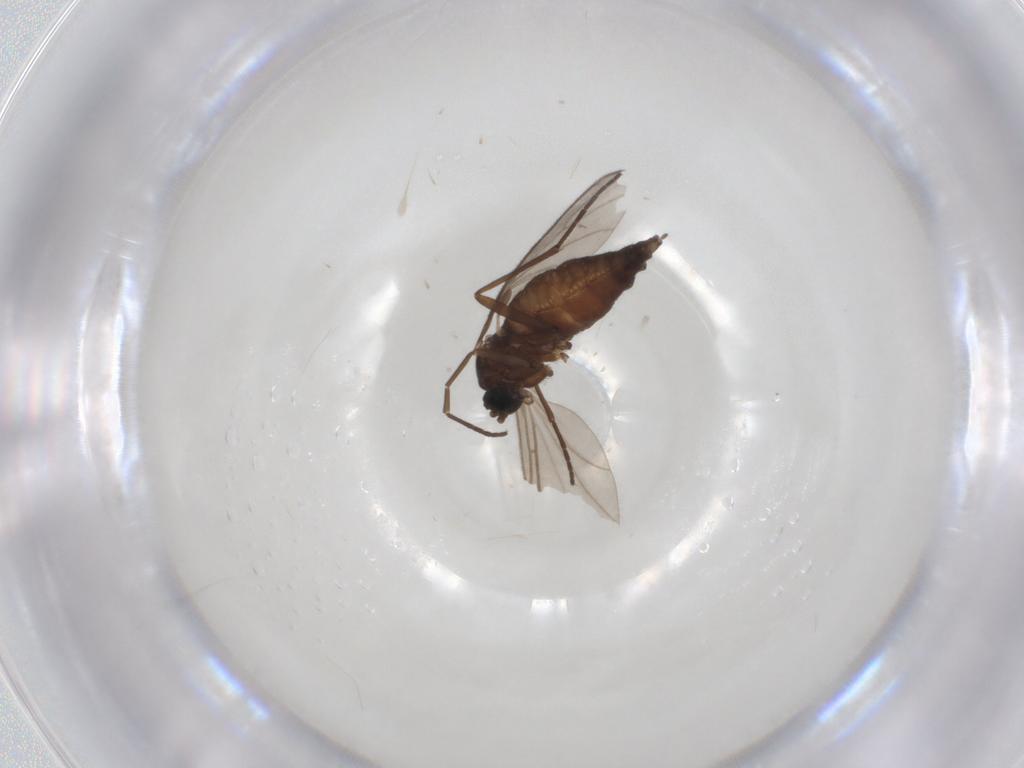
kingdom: Animalia
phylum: Arthropoda
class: Insecta
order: Diptera
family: Sciaridae
